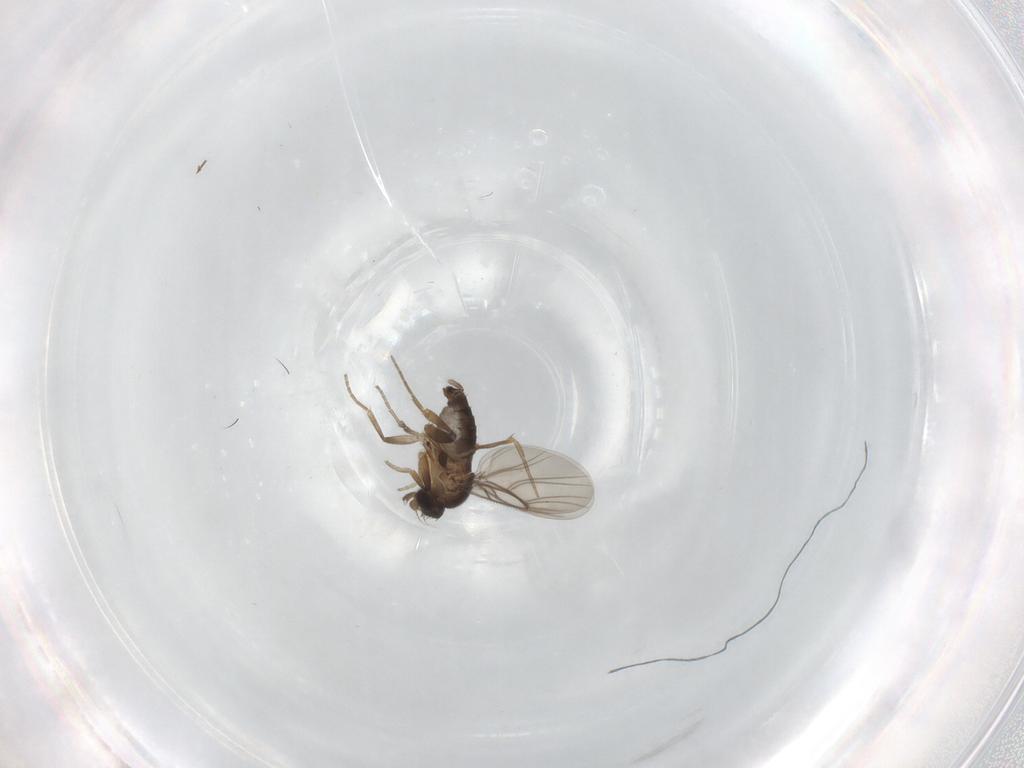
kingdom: Animalia
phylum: Arthropoda
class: Insecta
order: Diptera
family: Phoridae
